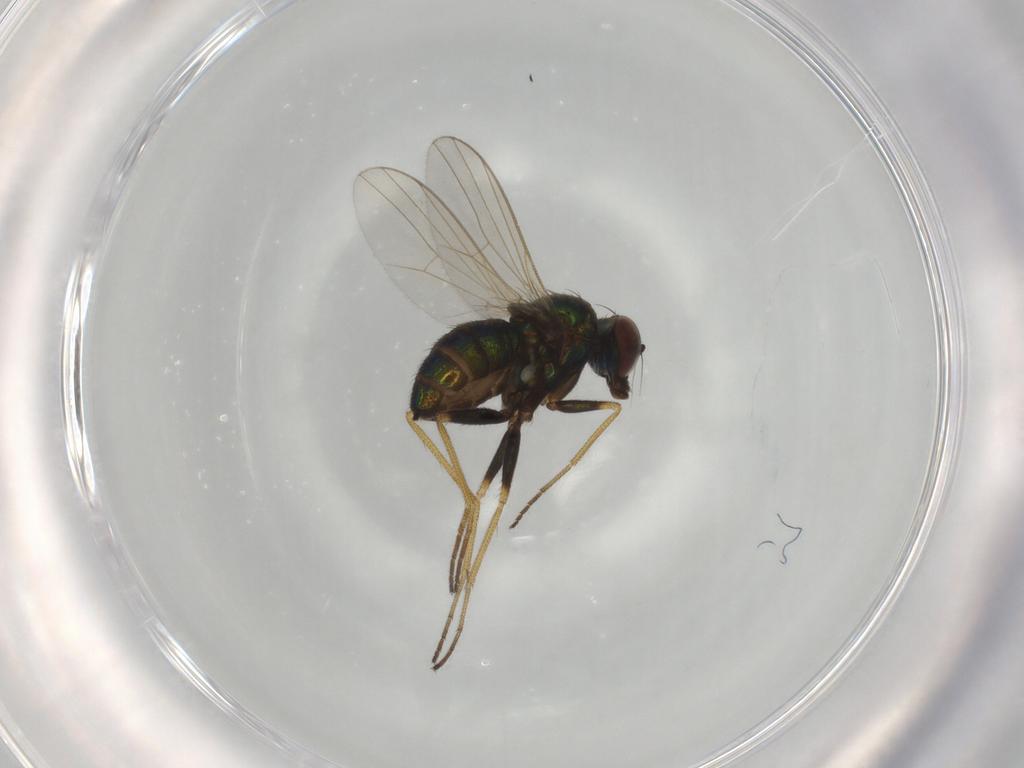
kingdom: Animalia
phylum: Arthropoda
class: Insecta
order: Diptera
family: Dolichopodidae
